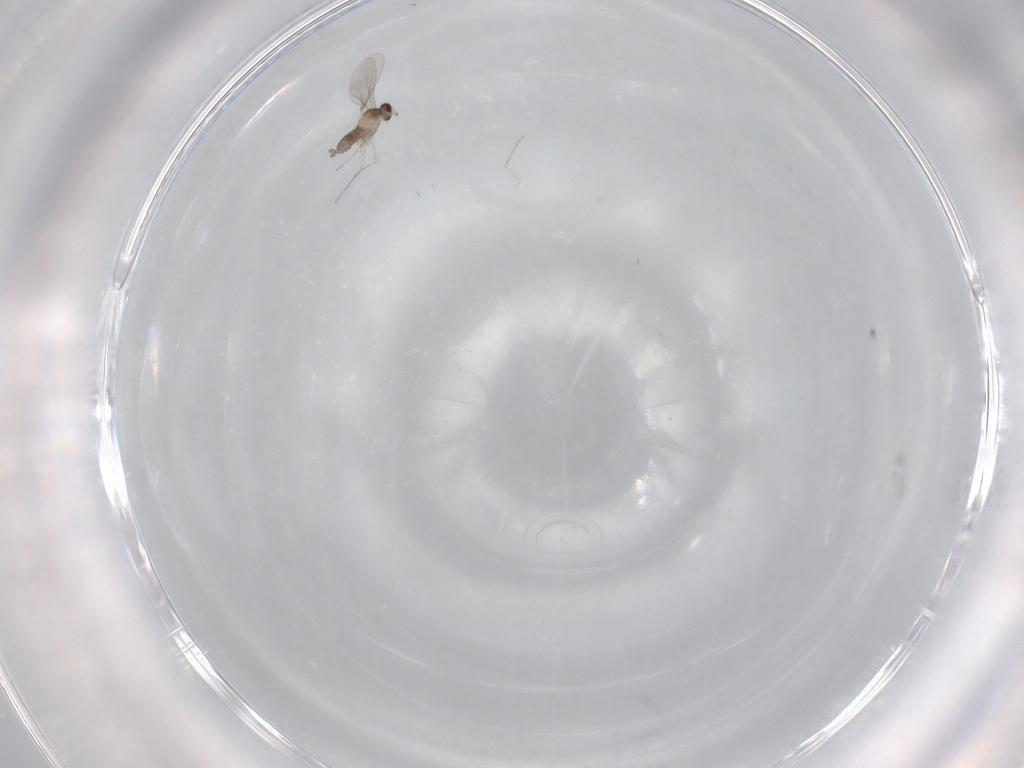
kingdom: Animalia
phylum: Arthropoda
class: Insecta
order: Diptera
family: Cecidomyiidae
